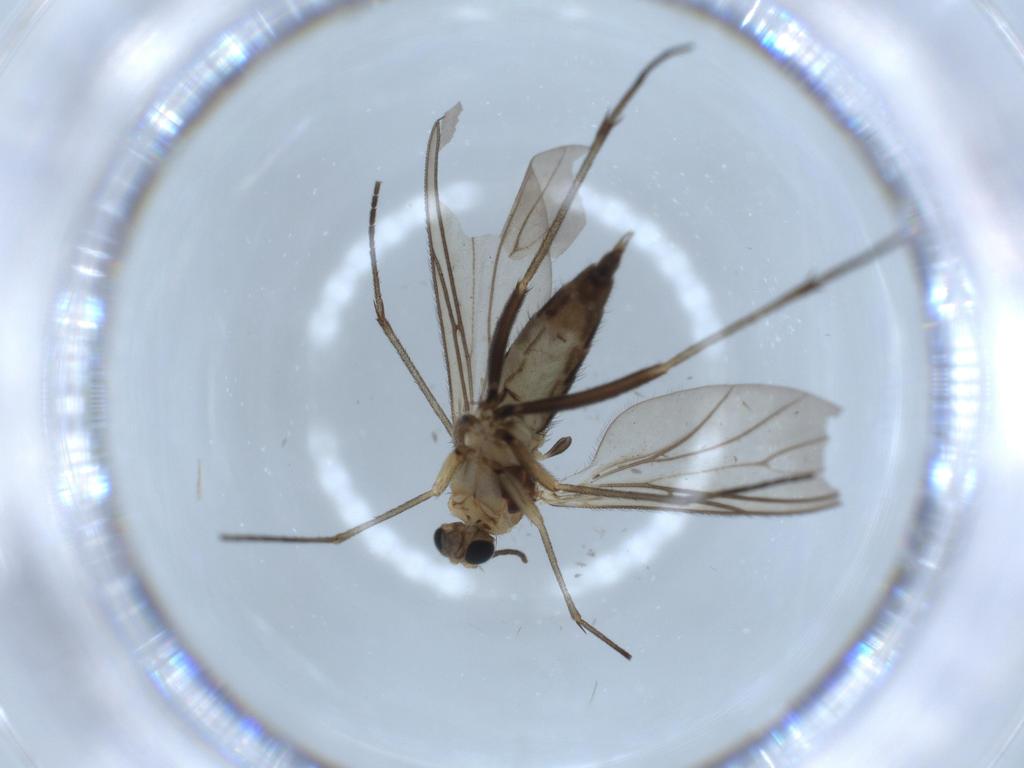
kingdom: Animalia
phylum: Arthropoda
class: Insecta
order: Diptera
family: Sciaridae
